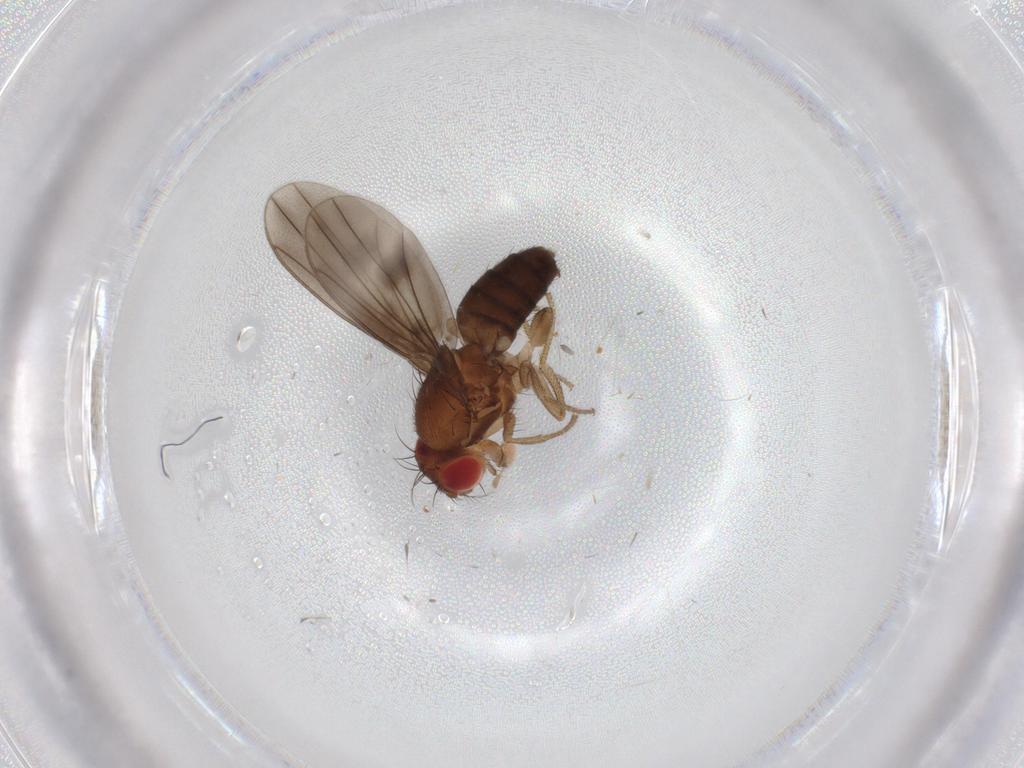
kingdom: Animalia
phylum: Arthropoda
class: Insecta
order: Diptera
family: Drosophilidae
